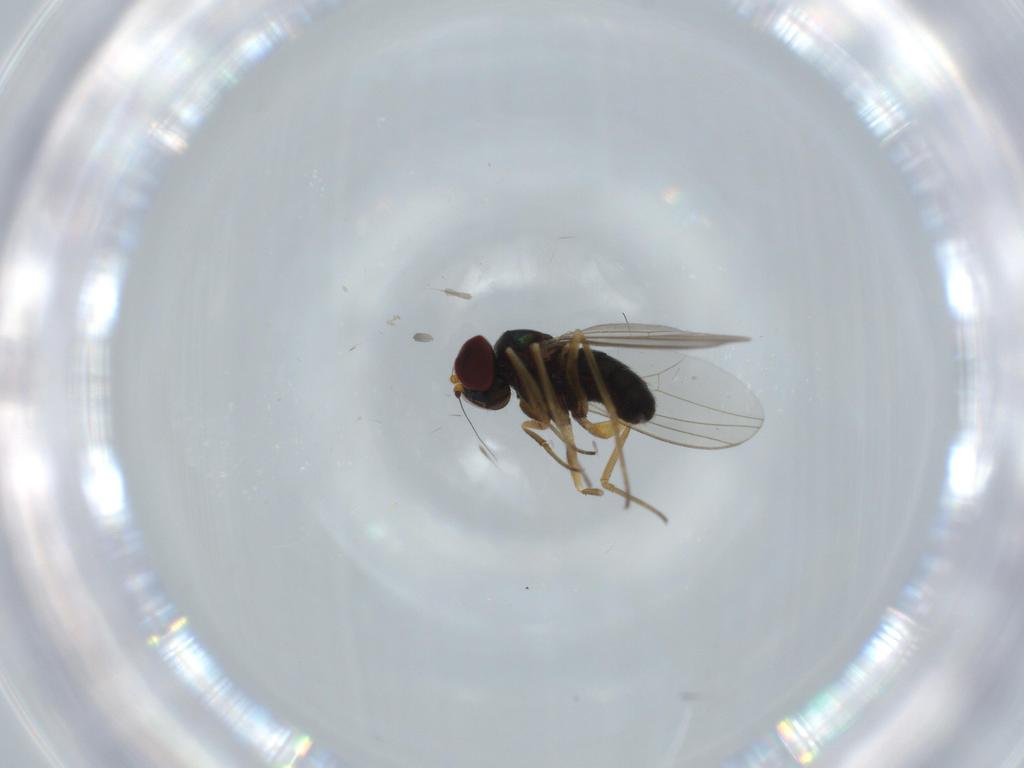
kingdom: Animalia
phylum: Arthropoda
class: Insecta
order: Diptera
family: Dolichopodidae
